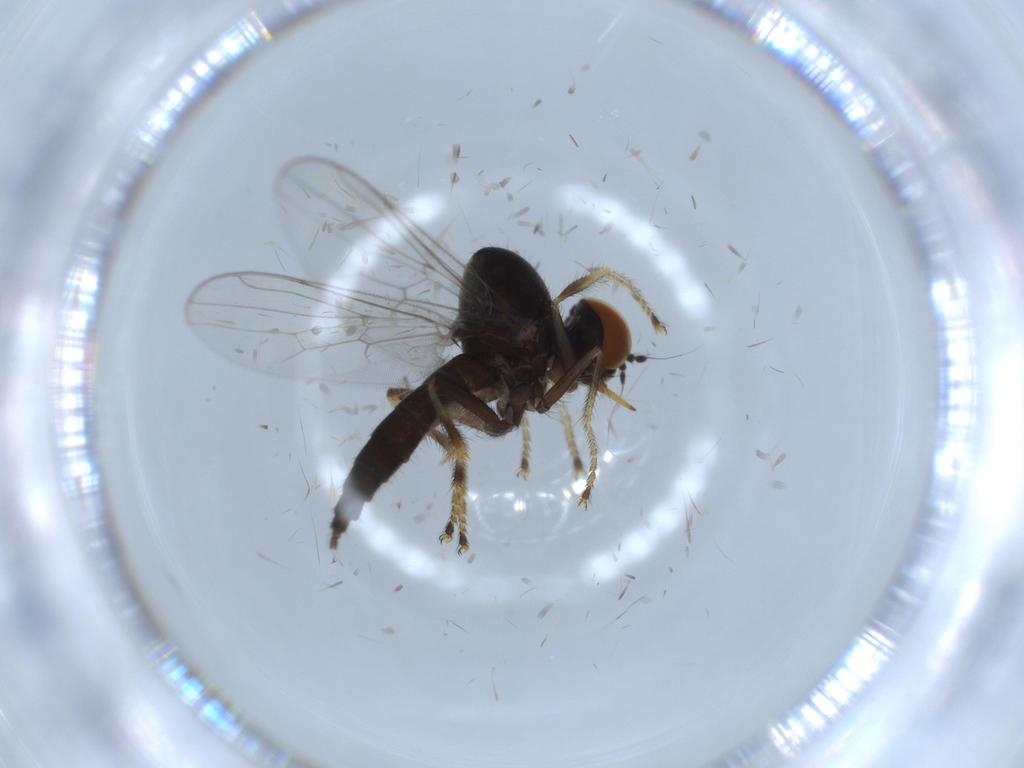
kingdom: Animalia
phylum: Arthropoda
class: Insecta
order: Diptera
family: Hybotidae
